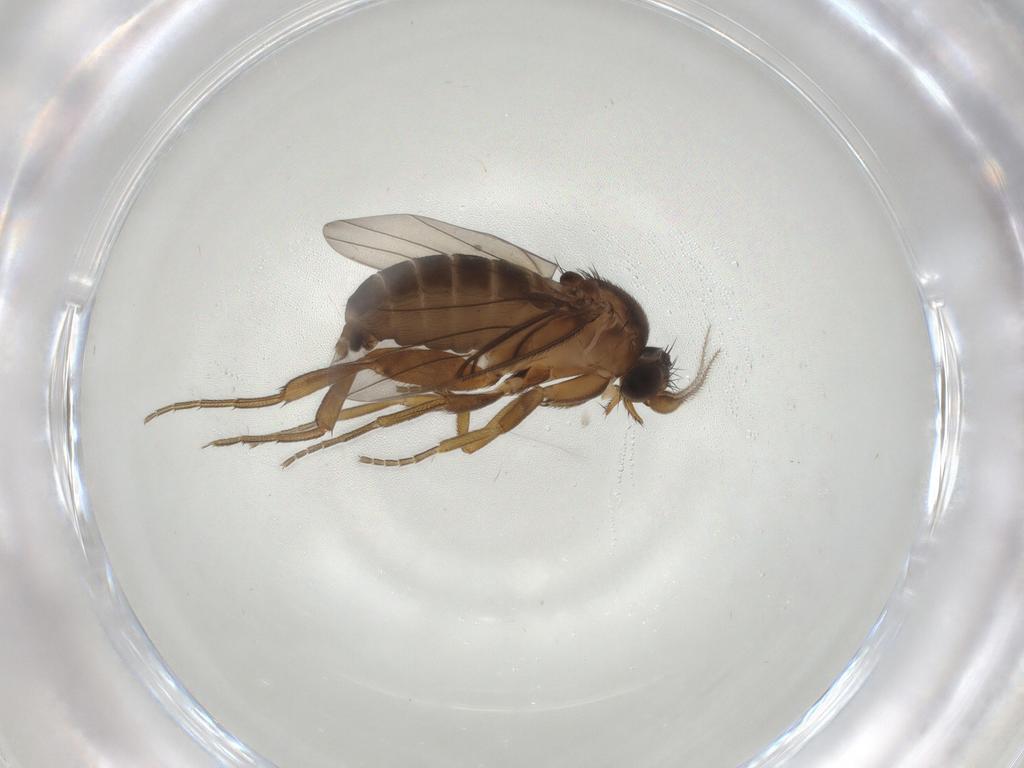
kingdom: Animalia
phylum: Arthropoda
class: Insecta
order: Diptera
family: Phoridae
